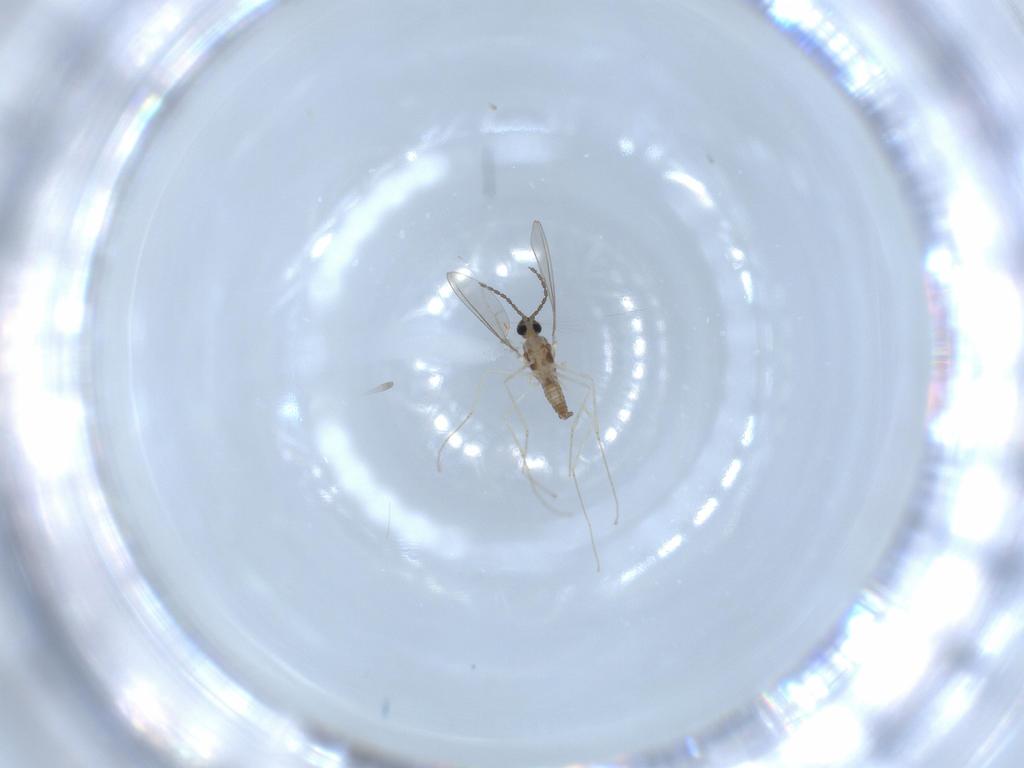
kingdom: Animalia
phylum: Arthropoda
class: Insecta
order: Diptera
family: Cecidomyiidae
